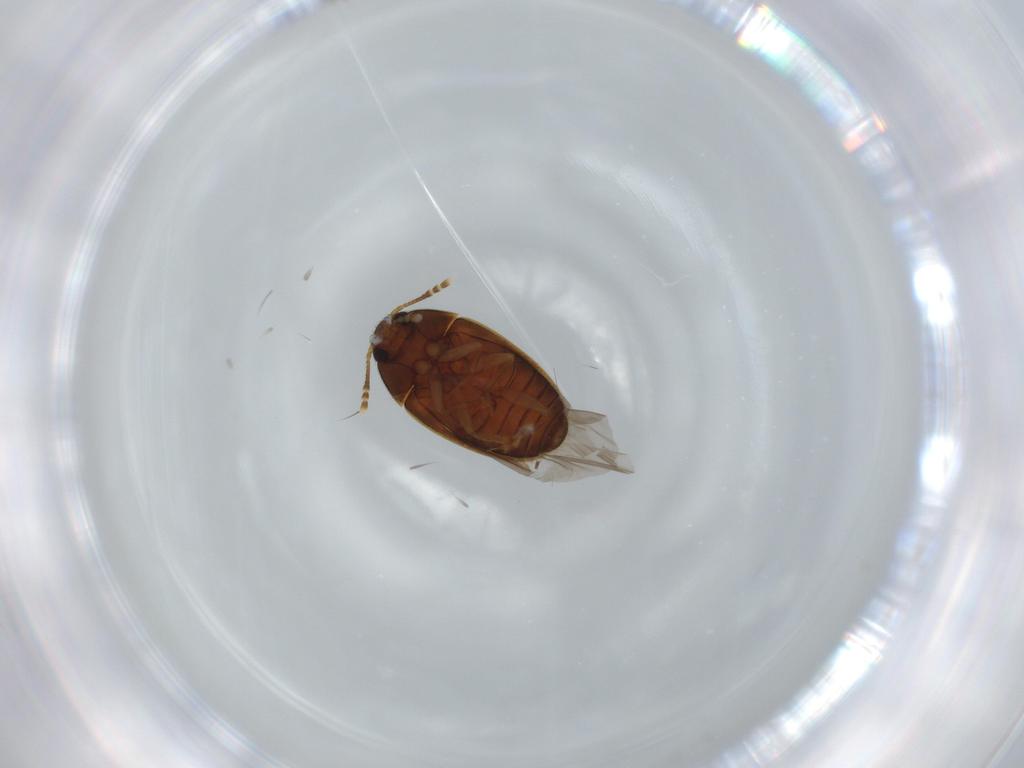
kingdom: Animalia
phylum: Arthropoda
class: Insecta
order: Coleoptera
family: Mycetophagidae
